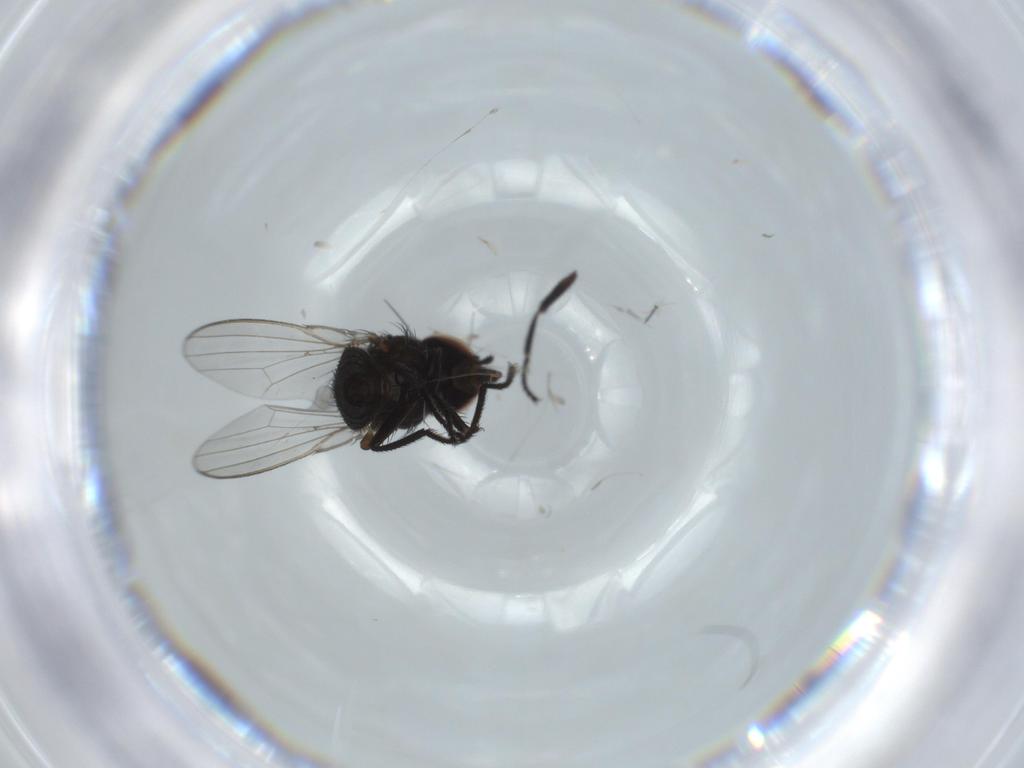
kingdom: Animalia
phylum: Arthropoda
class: Insecta
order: Diptera
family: Milichiidae
